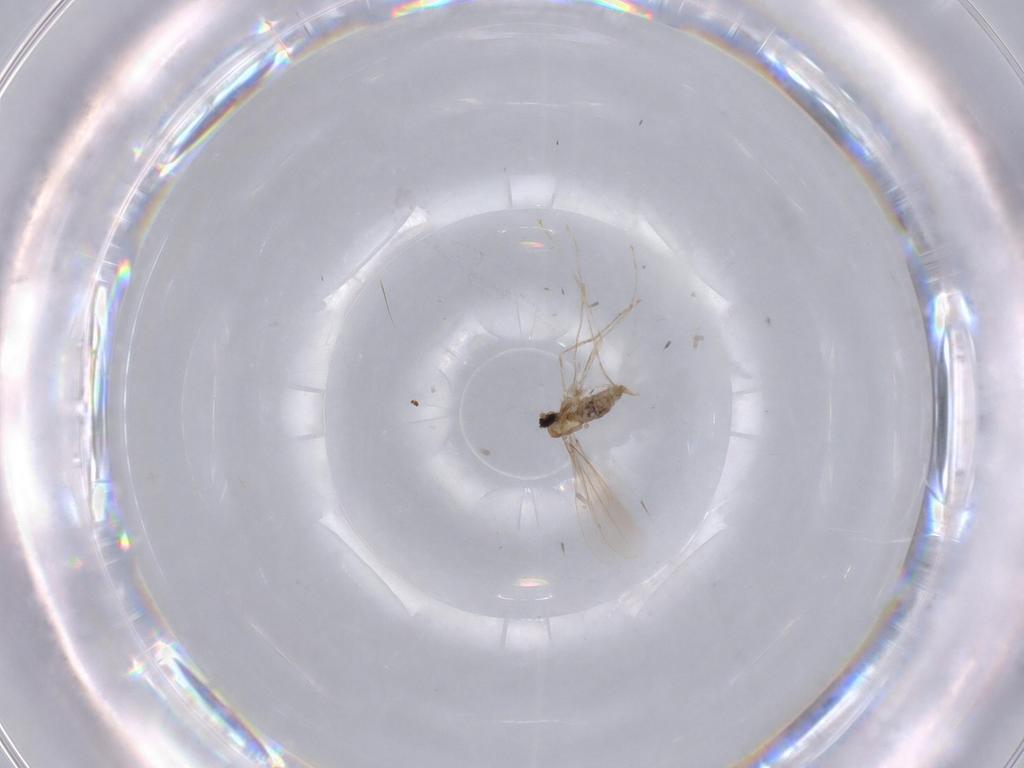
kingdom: Animalia
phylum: Arthropoda
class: Insecta
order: Diptera
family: Cecidomyiidae
